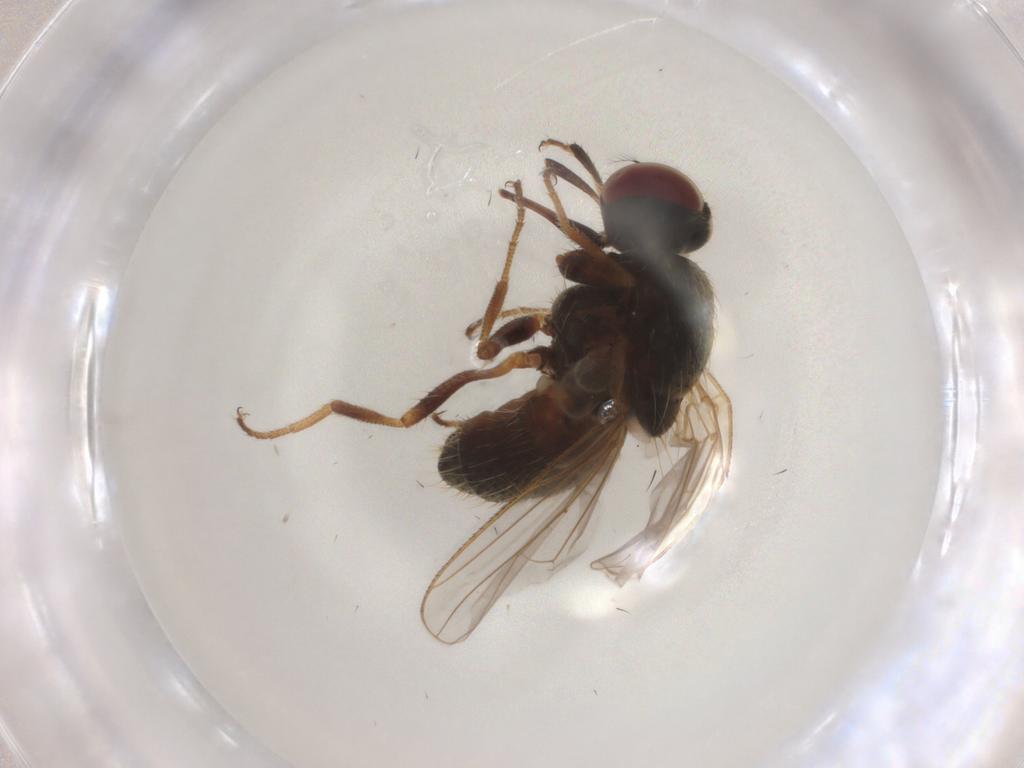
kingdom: Animalia
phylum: Arthropoda
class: Insecta
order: Diptera
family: Cecidomyiidae
